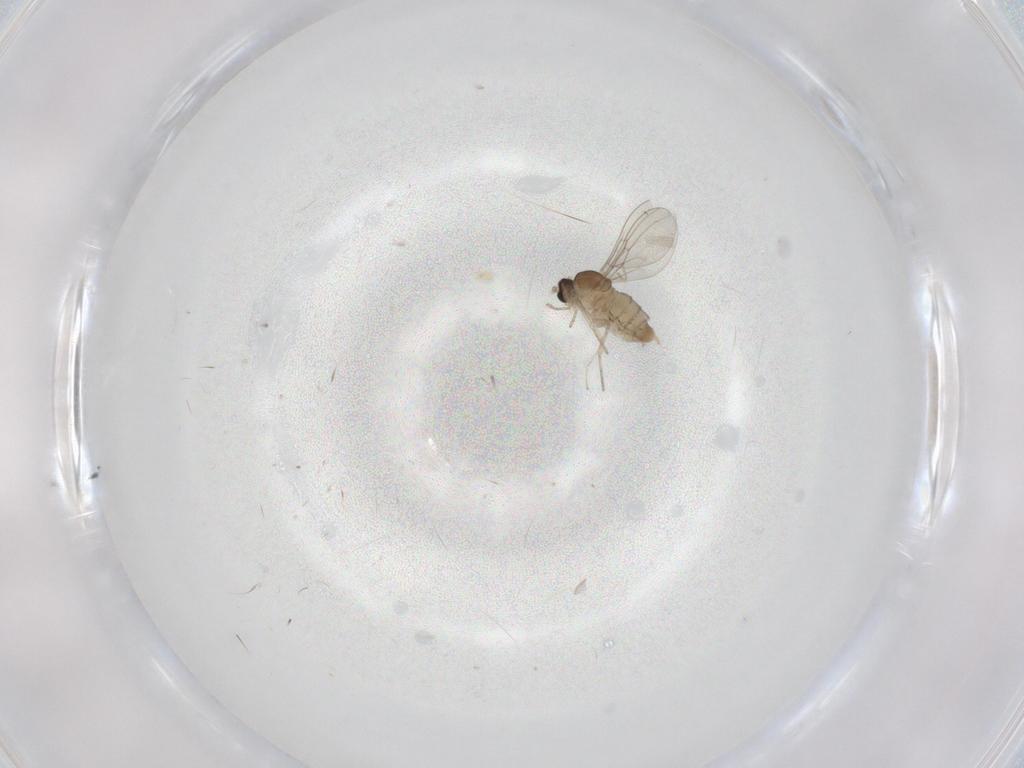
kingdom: Animalia
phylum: Arthropoda
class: Insecta
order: Diptera
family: Cecidomyiidae
